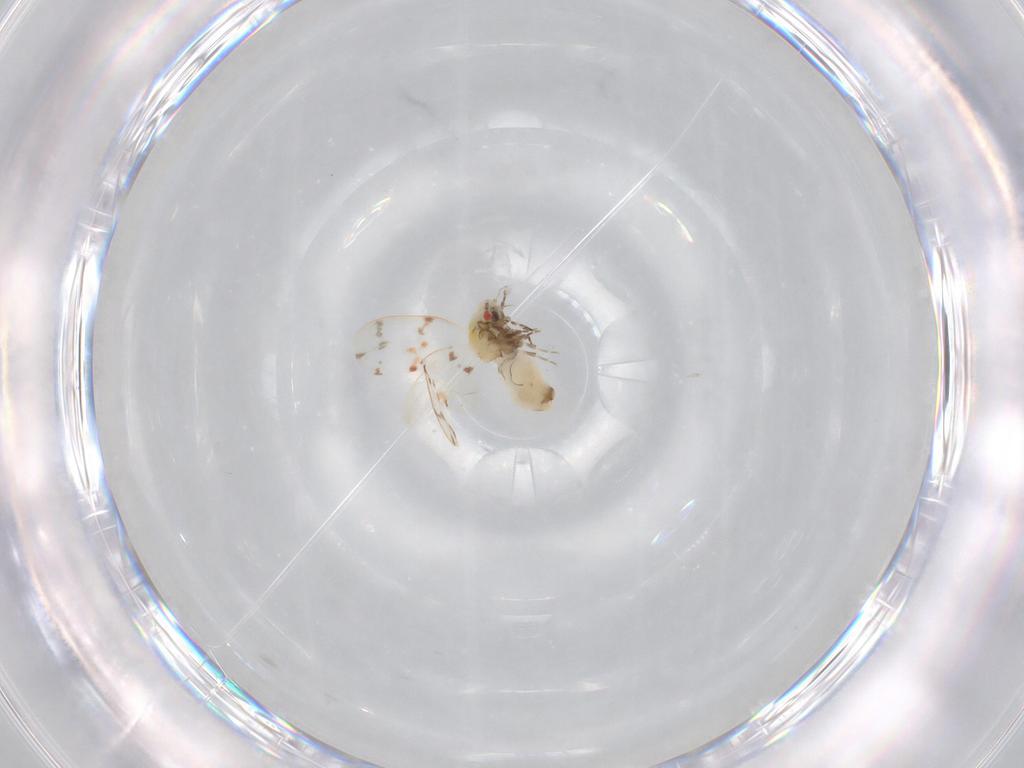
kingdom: Animalia
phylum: Arthropoda
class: Insecta
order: Hemiptera
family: Aleyrodidae
